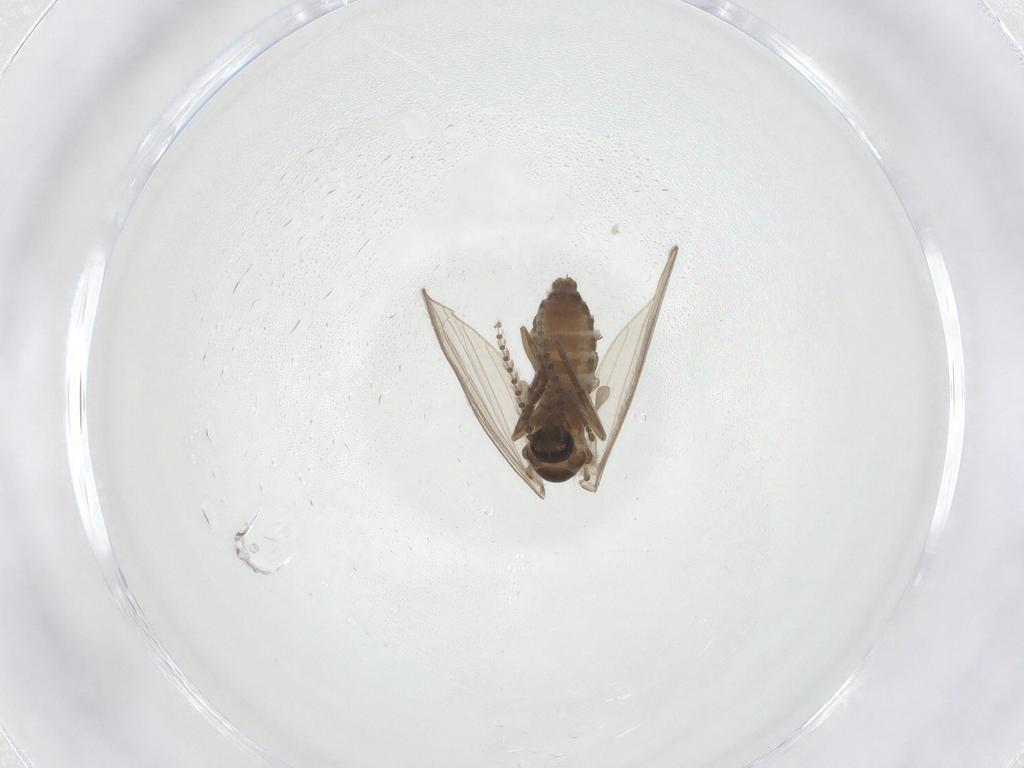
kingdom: Animalia
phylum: Arthropoda
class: Insecta
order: Diptera
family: Psychodidae
